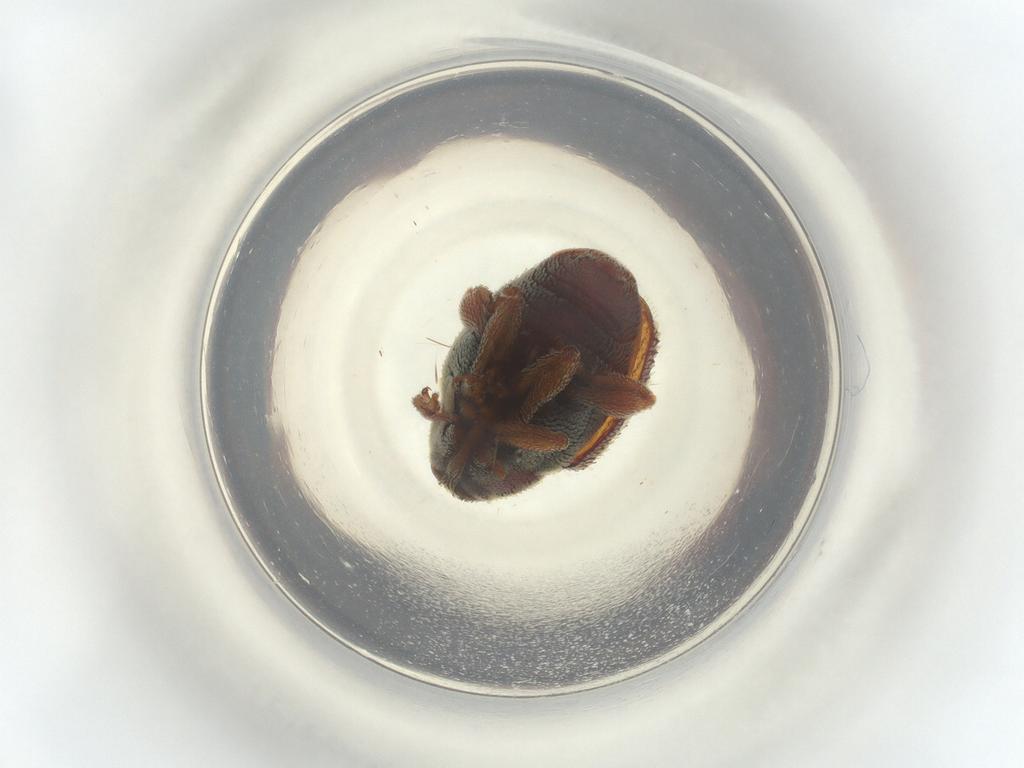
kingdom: Animalia
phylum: Arthropoda
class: Insecta
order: Coleoptera
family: Curculionidae
